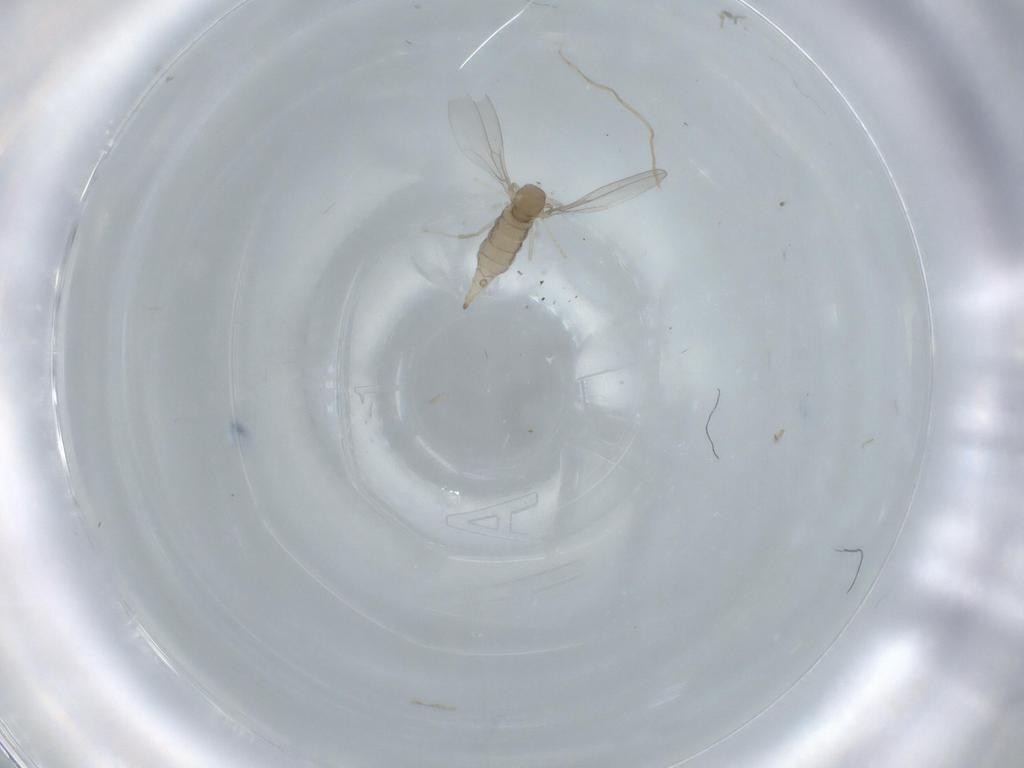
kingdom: Animalia
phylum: Arthropoda
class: Insecta
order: Diptera
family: Cecidomyiidae
